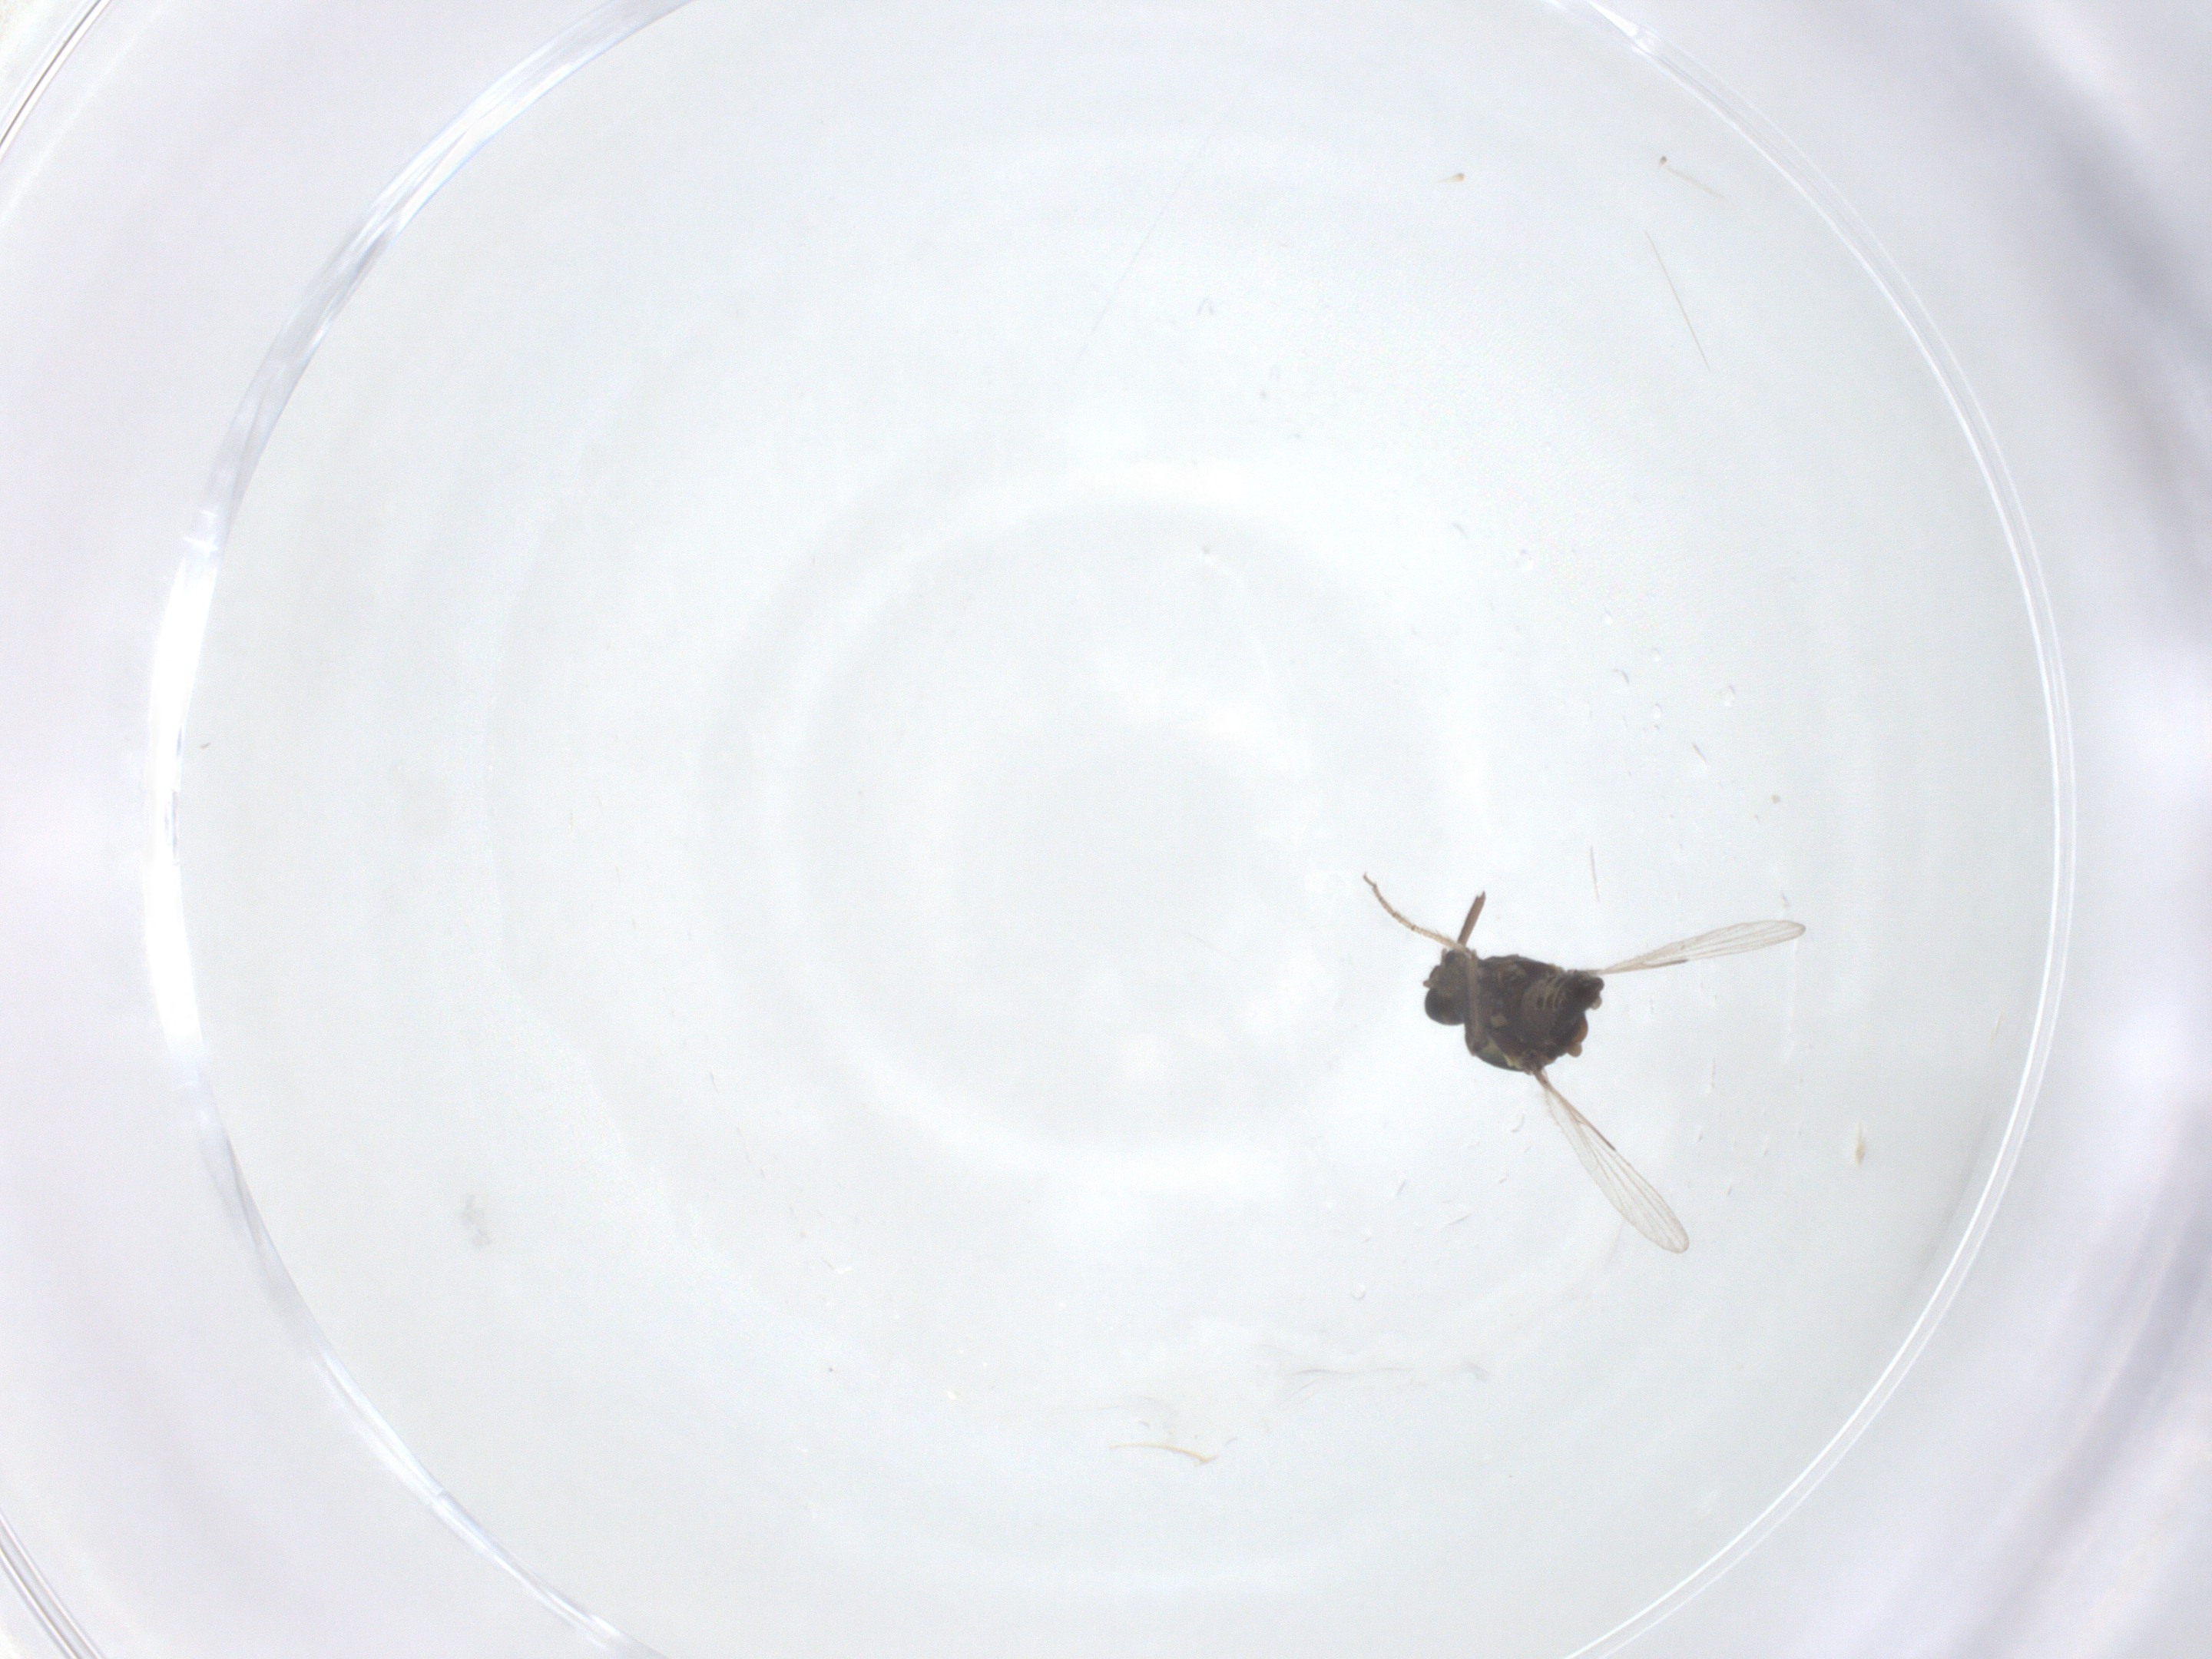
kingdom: Animalia
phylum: Arthropoda
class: Insecta
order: Diptera
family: Ceratopogonidae
